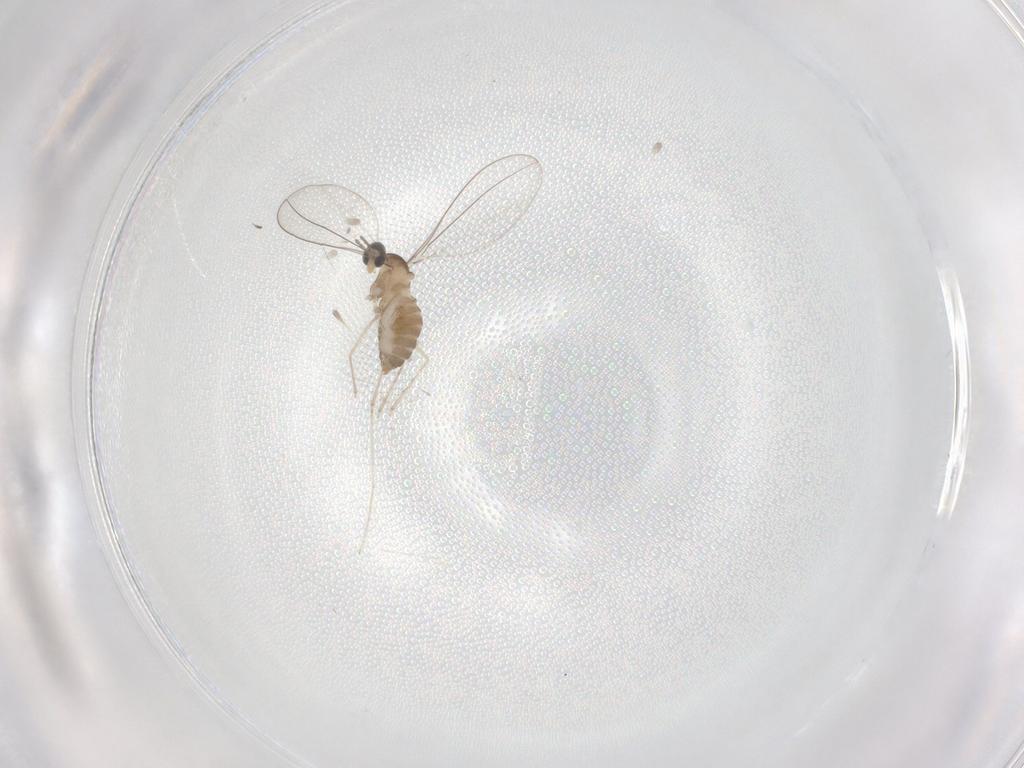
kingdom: Animalia
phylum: Arthropoda
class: Insecta
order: Diptera
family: Cecidomyiidae
